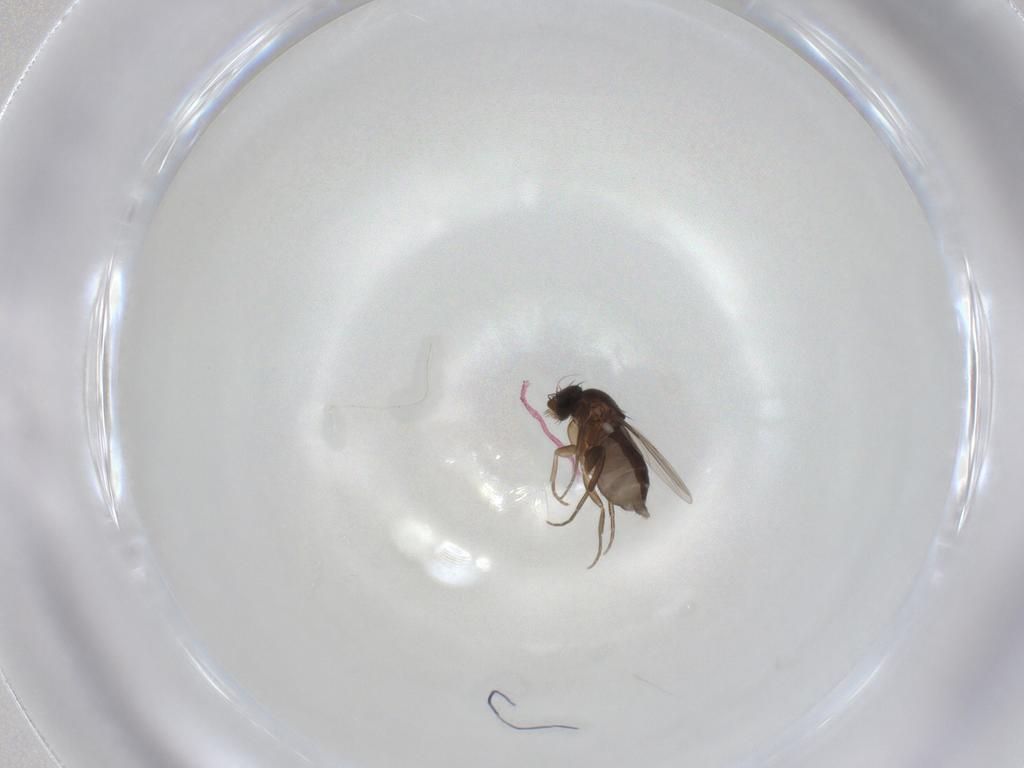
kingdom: Animalia
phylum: Arthropoda
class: Insecta
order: Diptera
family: Phoridae
